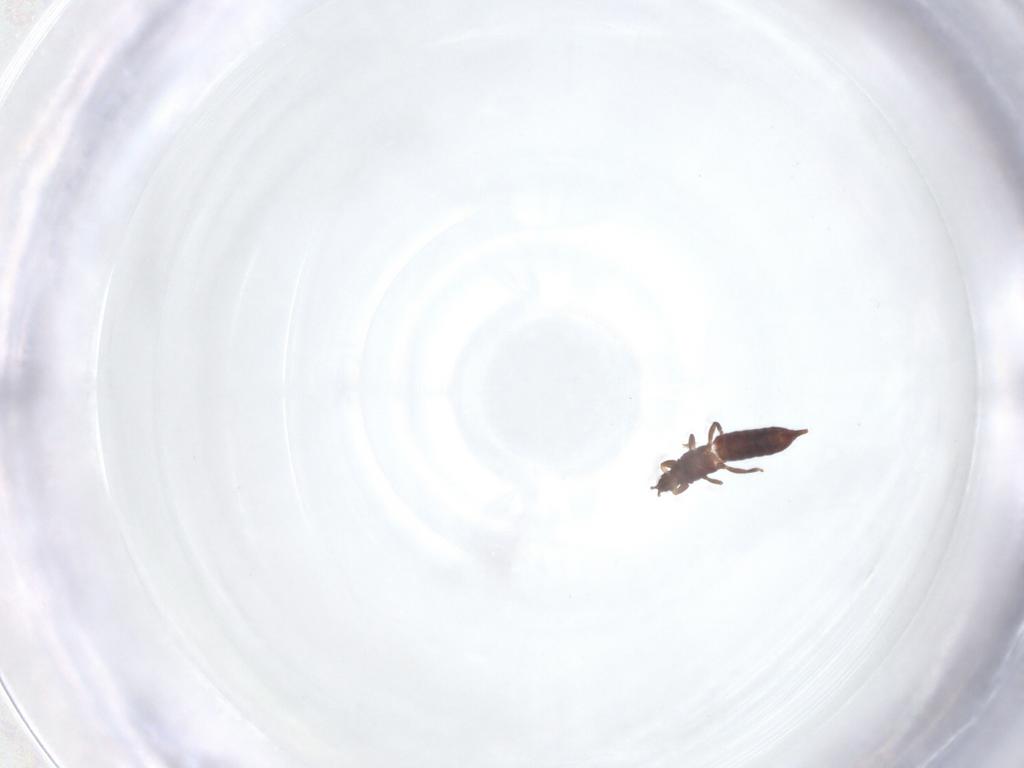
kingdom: Animalia
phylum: Arthropoda
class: Insecta
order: Thysanoptera
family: Phlaeothripidae
